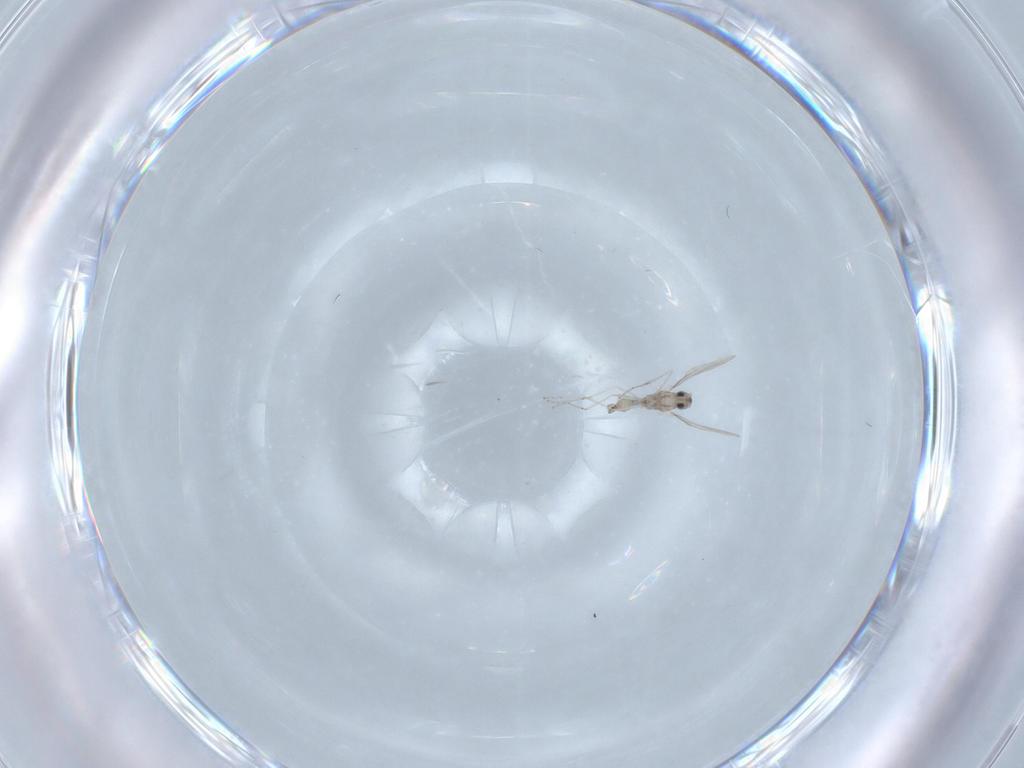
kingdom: Animalia
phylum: Arthropoda
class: Insecta
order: Diptera
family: Cecidomyiidae
